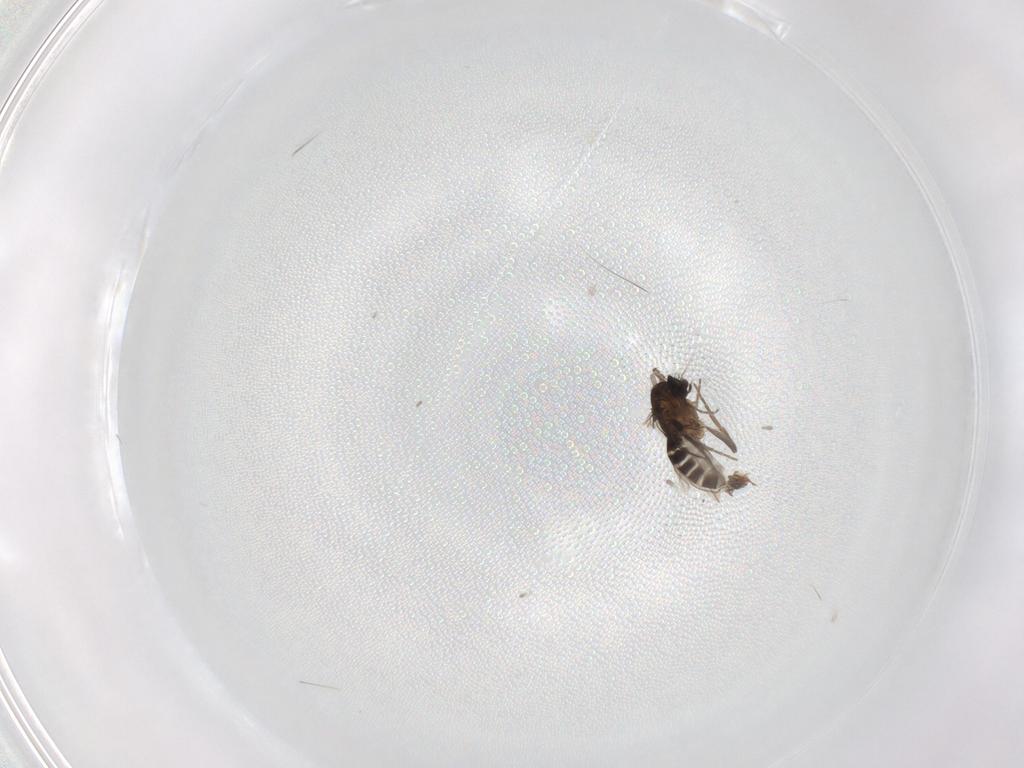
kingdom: Animalia
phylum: Arthropoda
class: Insecta
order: Diptera
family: Phoridae
